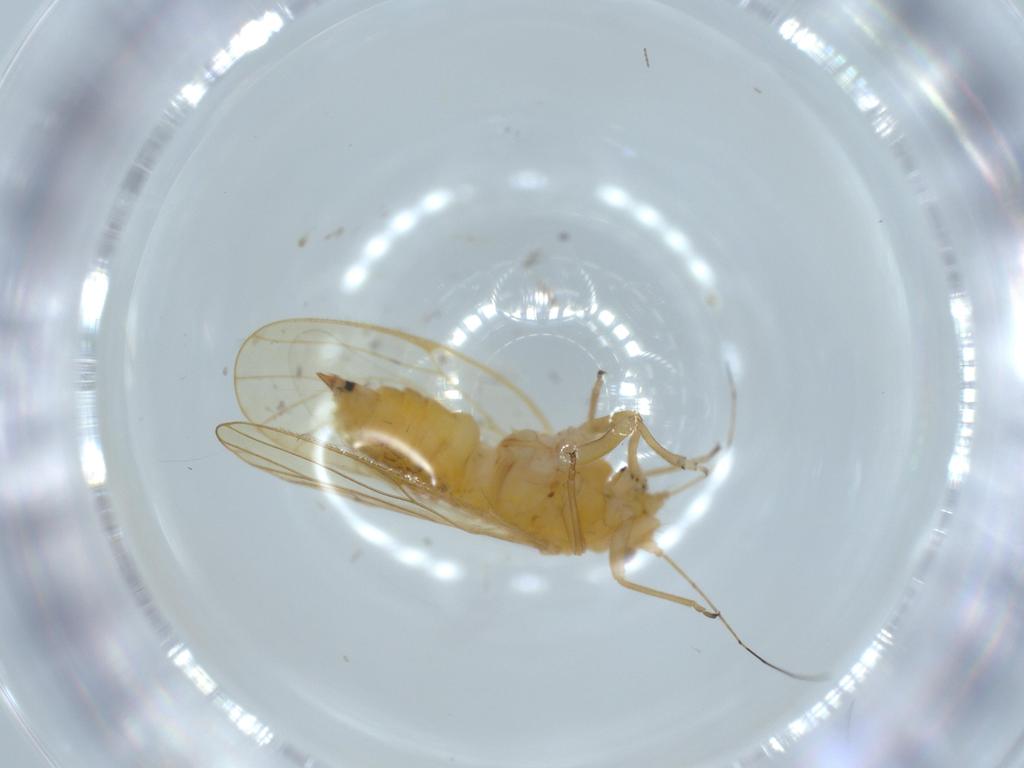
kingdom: Animalia
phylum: Arthropoda
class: Insecta
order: Hemiptera
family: Psyllidae
